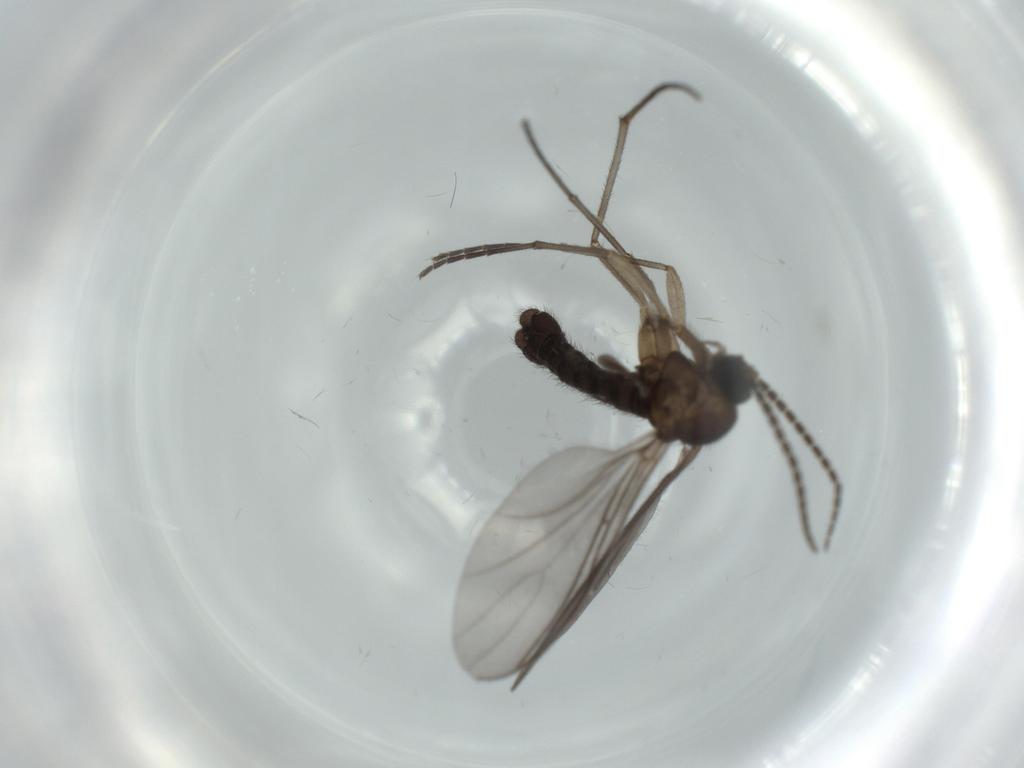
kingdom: Animalia
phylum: Arthropoda
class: Insecta
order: Diptera
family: Sciaridae
